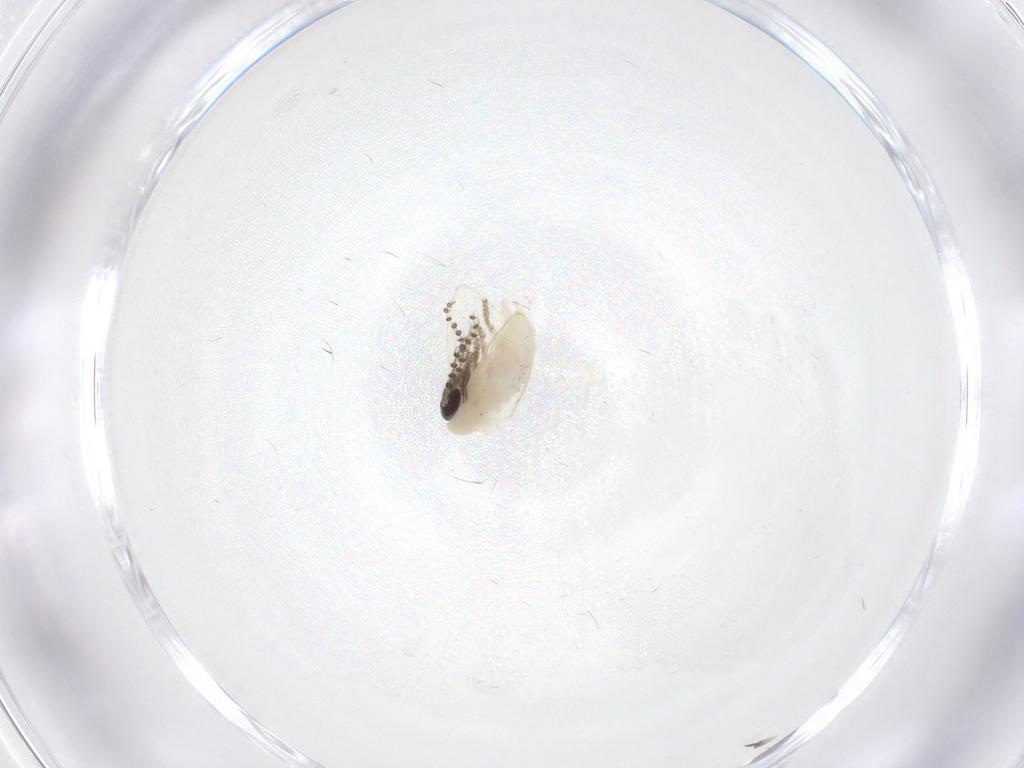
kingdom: Animalia
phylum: Arthropoda
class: Insecta
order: Diptera
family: Psychodidae
